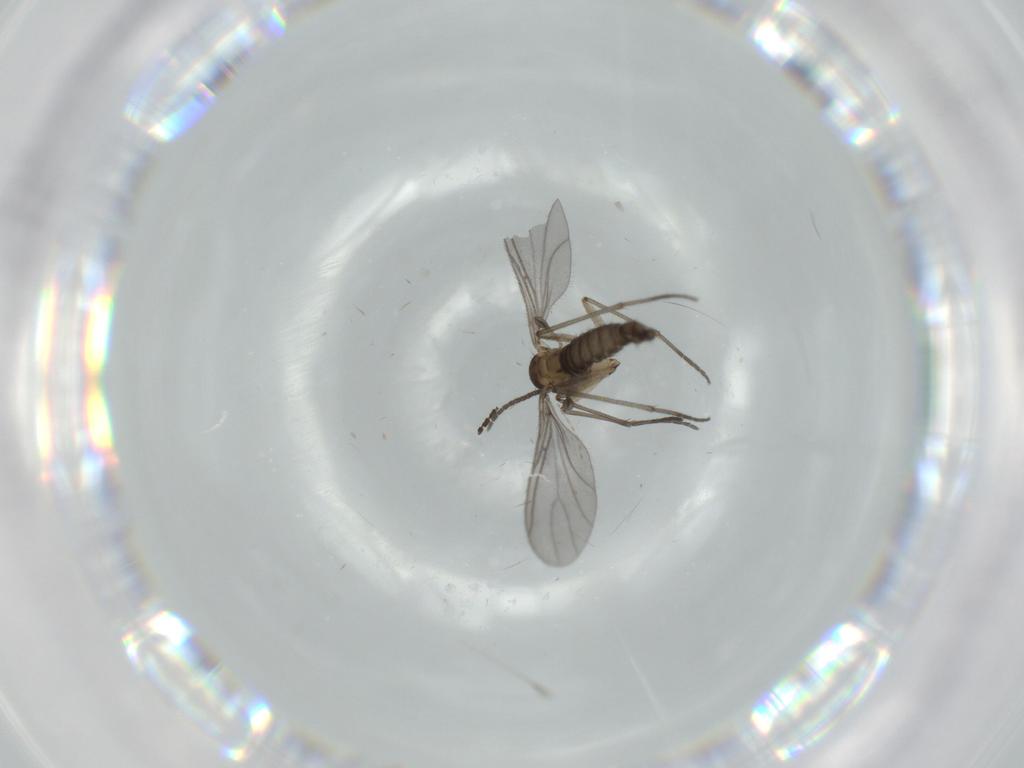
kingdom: Animalia
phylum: Arthropoda
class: Insecta
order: Diptera
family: Sciaridae
